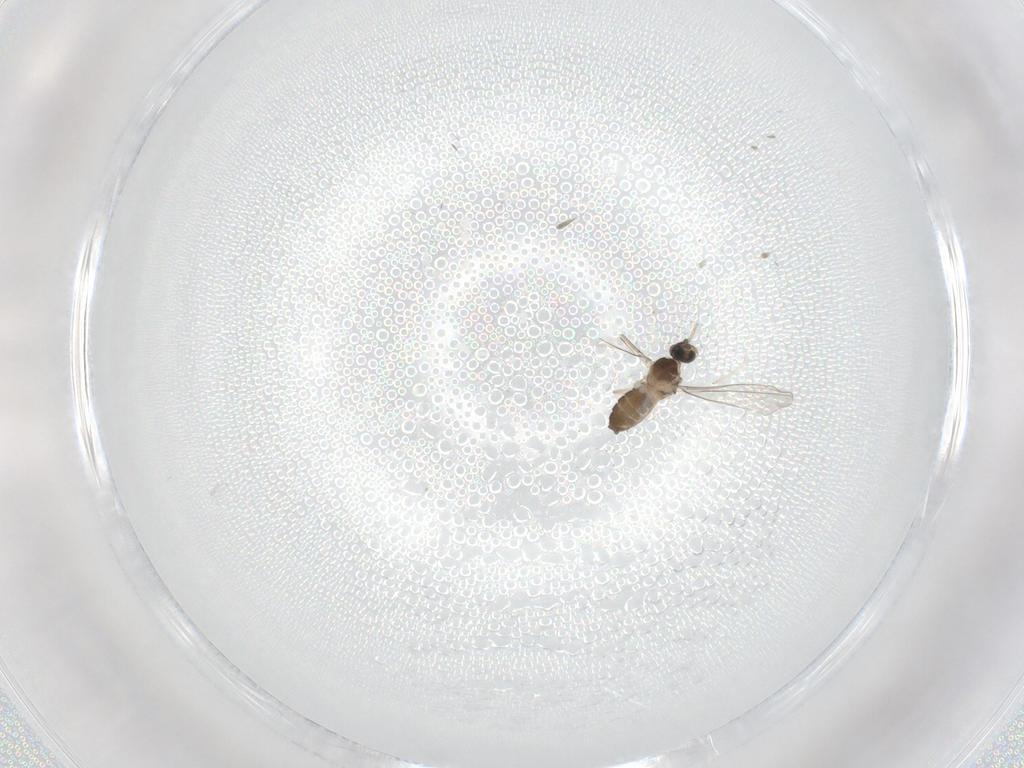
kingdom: Animalia
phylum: Arthropoda
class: Insecta
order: Diptera
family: Cecidomyiidae
